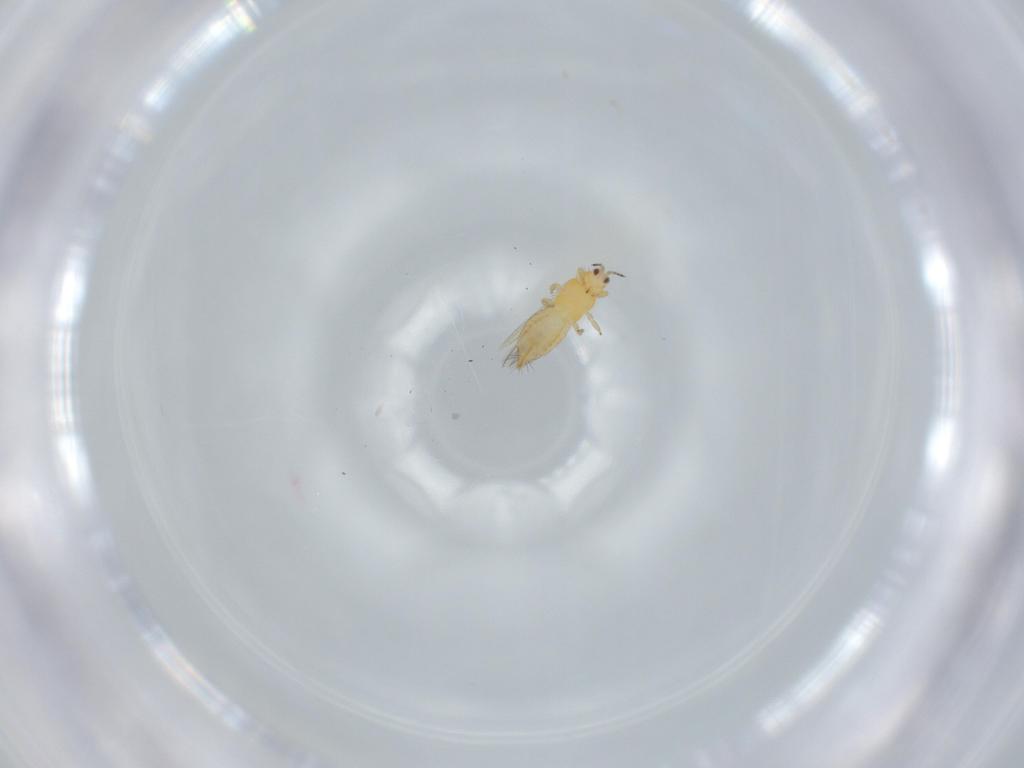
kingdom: Animalia
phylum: Arthropoda
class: Insecta
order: Thysanoptera
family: Thripidae
